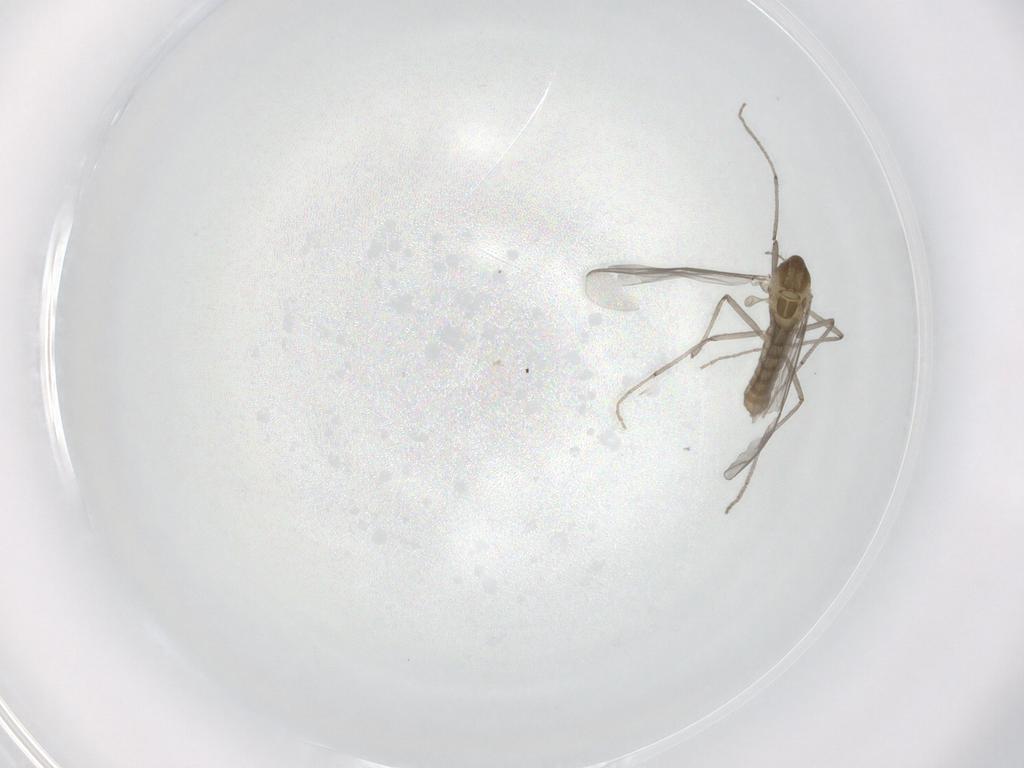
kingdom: Animalia
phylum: Arthropoda
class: Insecta
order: Diptera
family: Chironomidae
